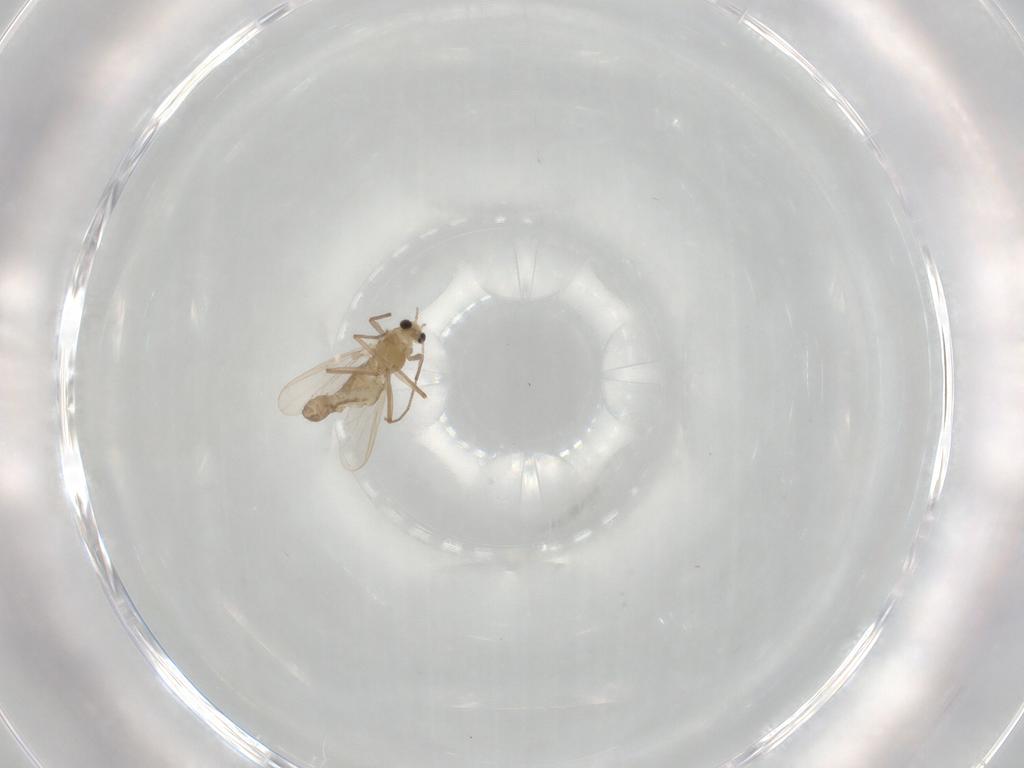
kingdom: Animalia
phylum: Arthropoda
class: Insecta
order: Diptera
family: Chironomidae
